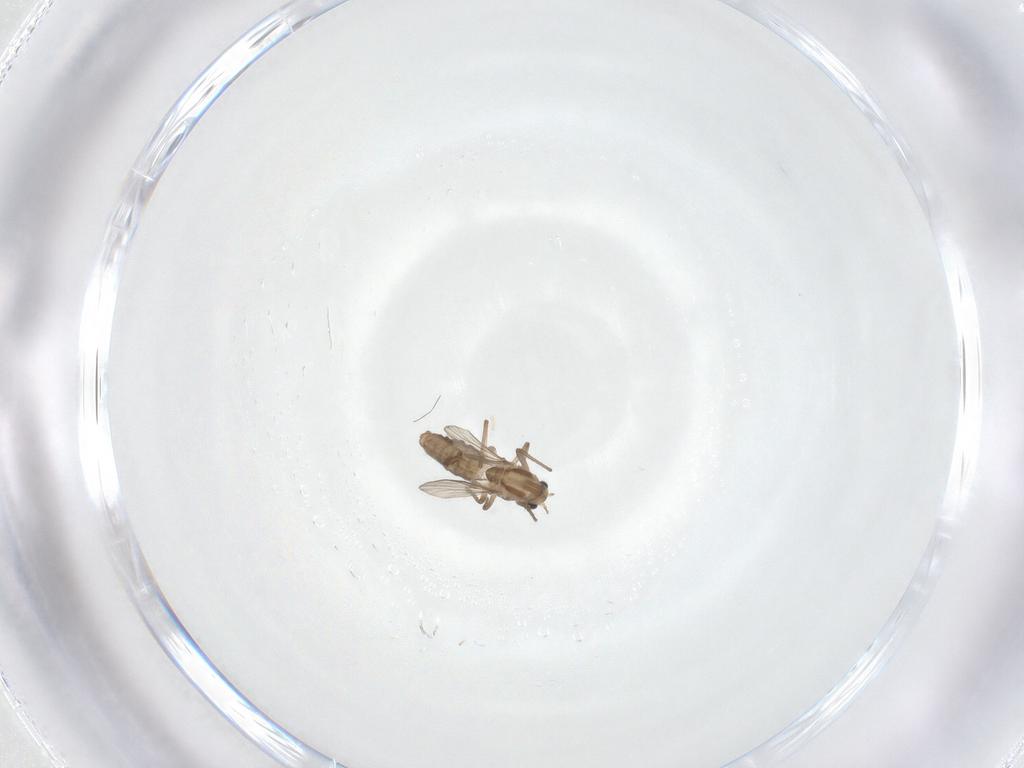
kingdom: Animalia
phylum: Arthropoda
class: Insecta
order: Diptera
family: Chironomidae
